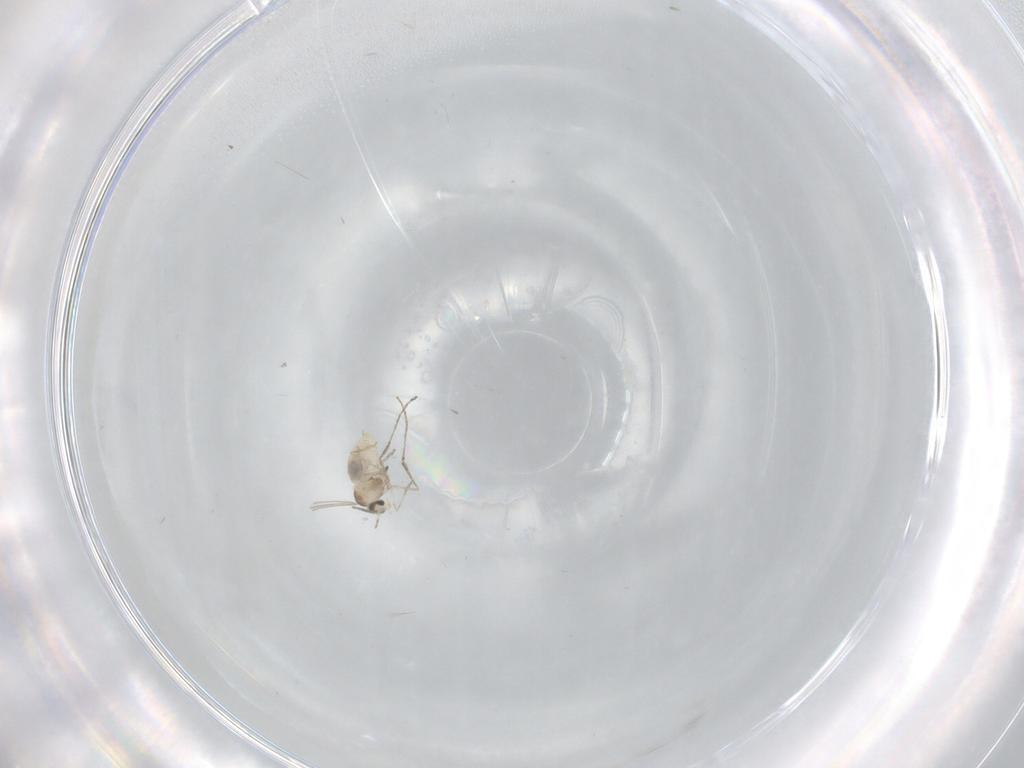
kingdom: Animalia
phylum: Arthropoda
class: Insecta
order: Diptera
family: Cecidomyiidae
